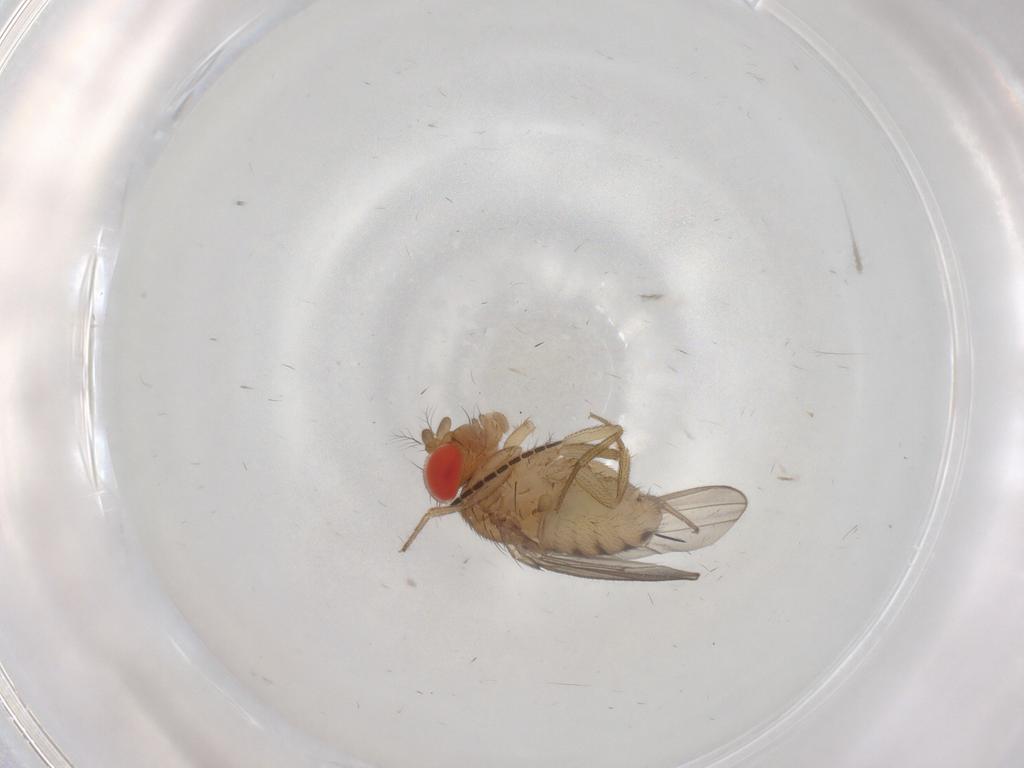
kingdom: Animalia
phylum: Arthropoda
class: Insecta
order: Diptera
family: Drosophilidae
